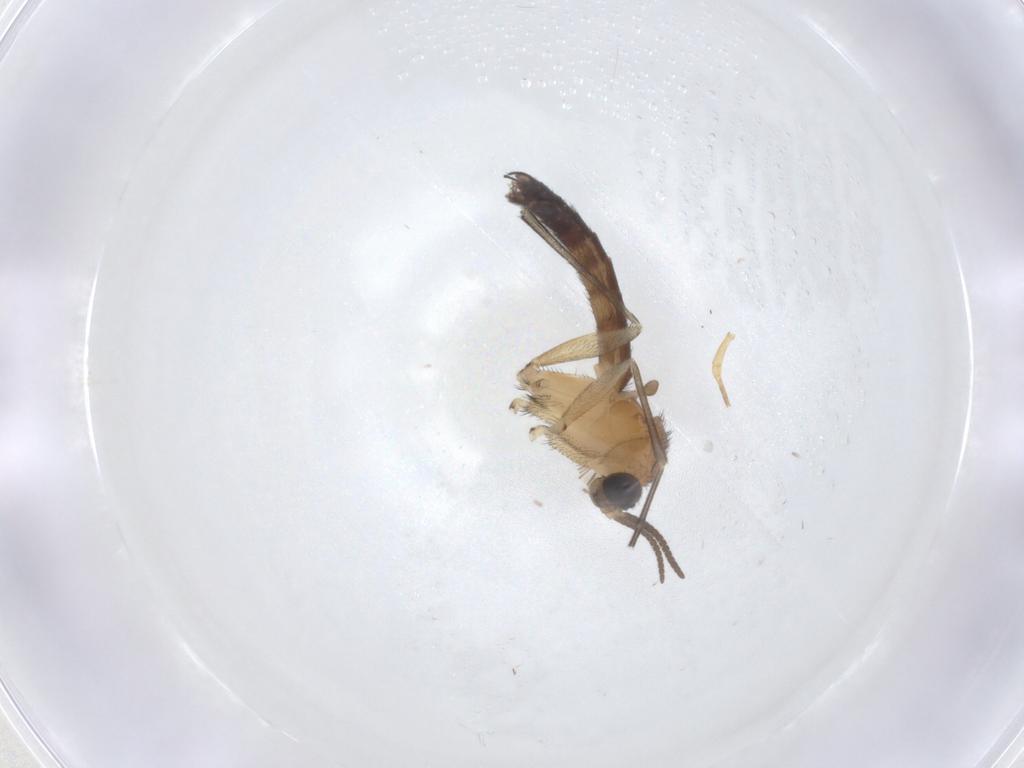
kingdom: Animalia
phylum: Arthropoda
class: Insecta
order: Diptera
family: Keroplatidae
